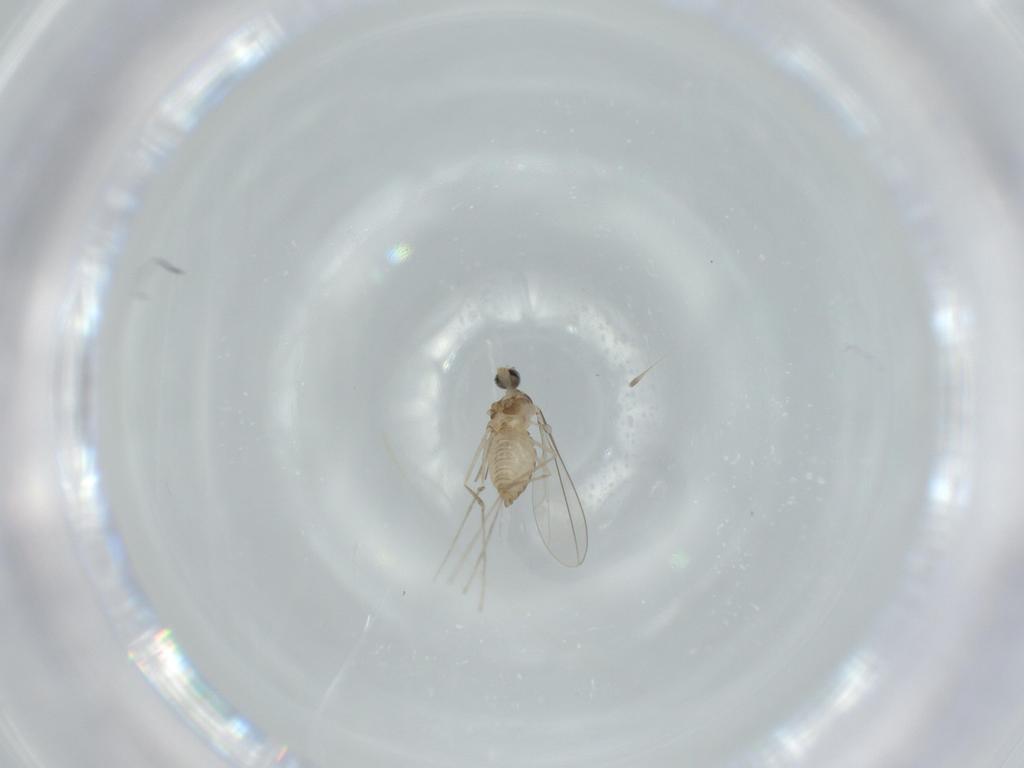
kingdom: Animalia
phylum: Arthropoda
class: Insecta
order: Diptera
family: Cecidomyiidae
